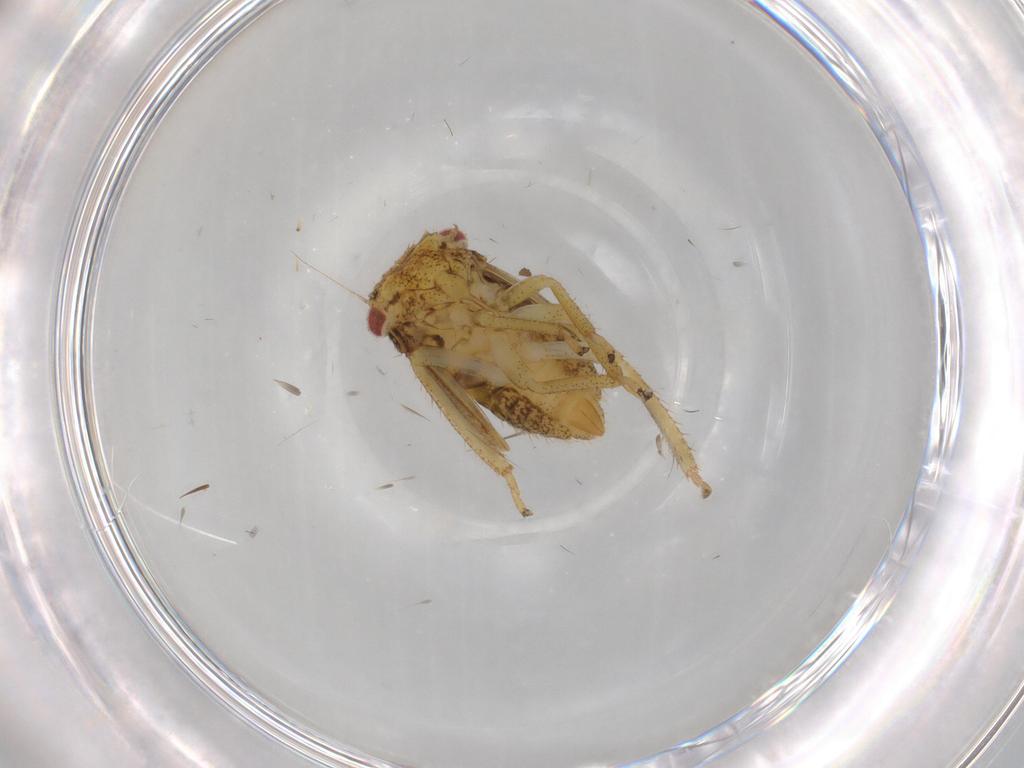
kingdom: Animalia
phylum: Arthropoda
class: Insecta
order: Hemiptera
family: Cicadellidae
